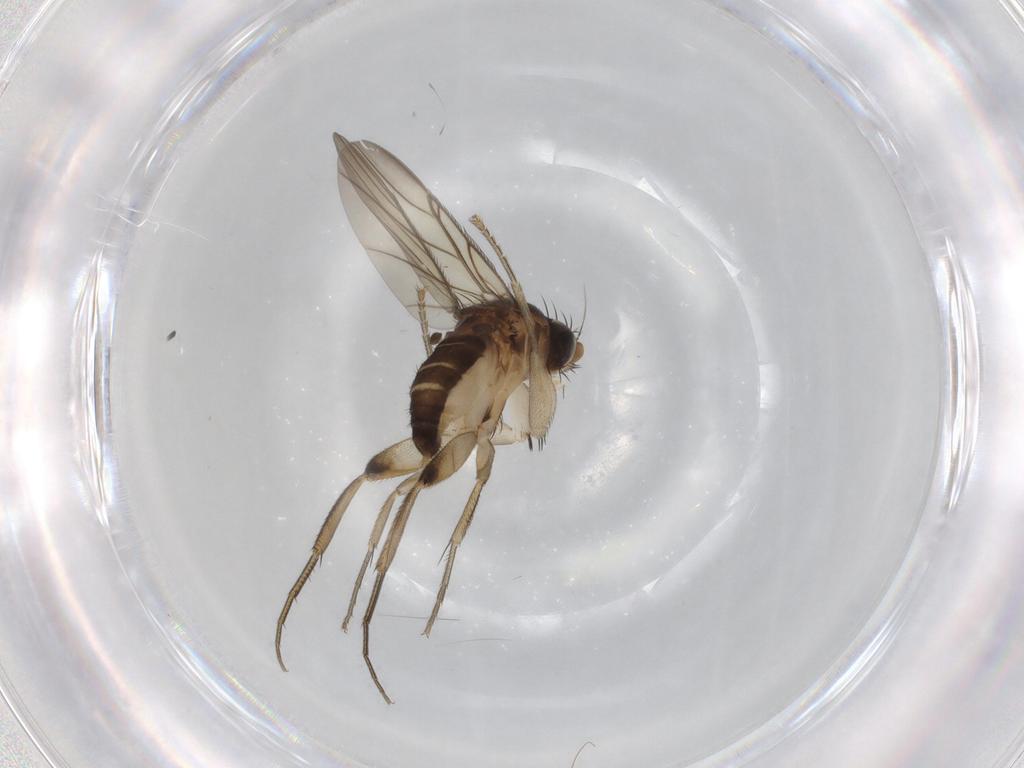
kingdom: Animalia
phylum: Arthropoda
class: Insecta
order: Diptera
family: Phoridae
